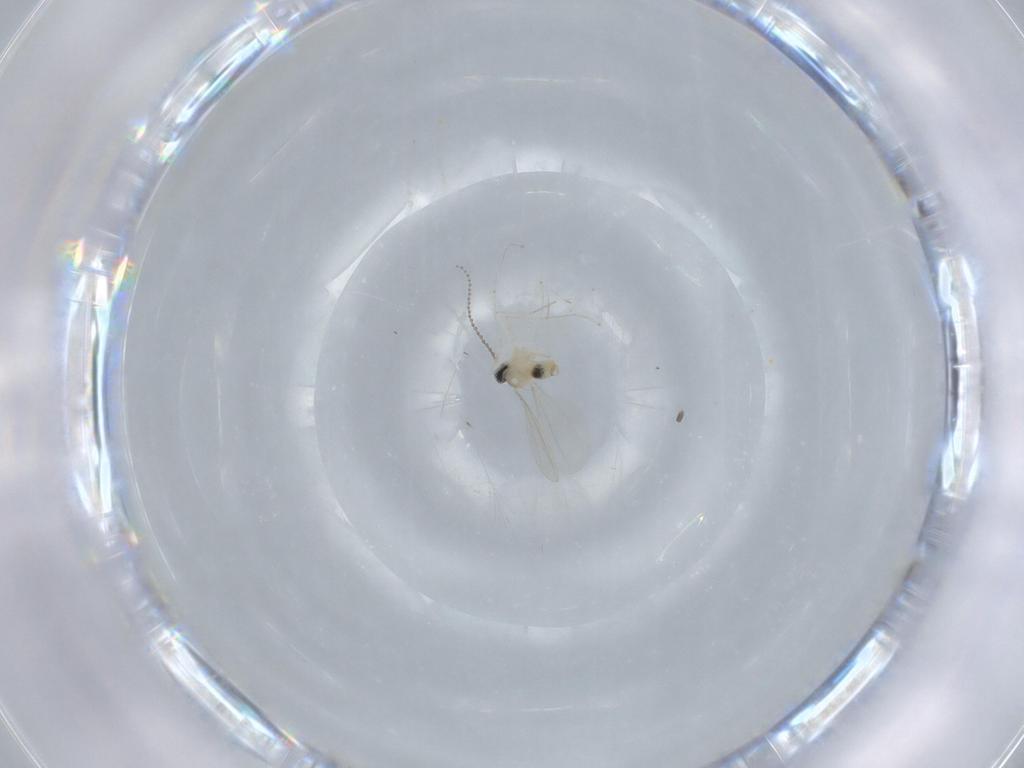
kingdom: Animalia
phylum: Arthropoda
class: Insecta
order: Diptera
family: Cecidomyiidae
